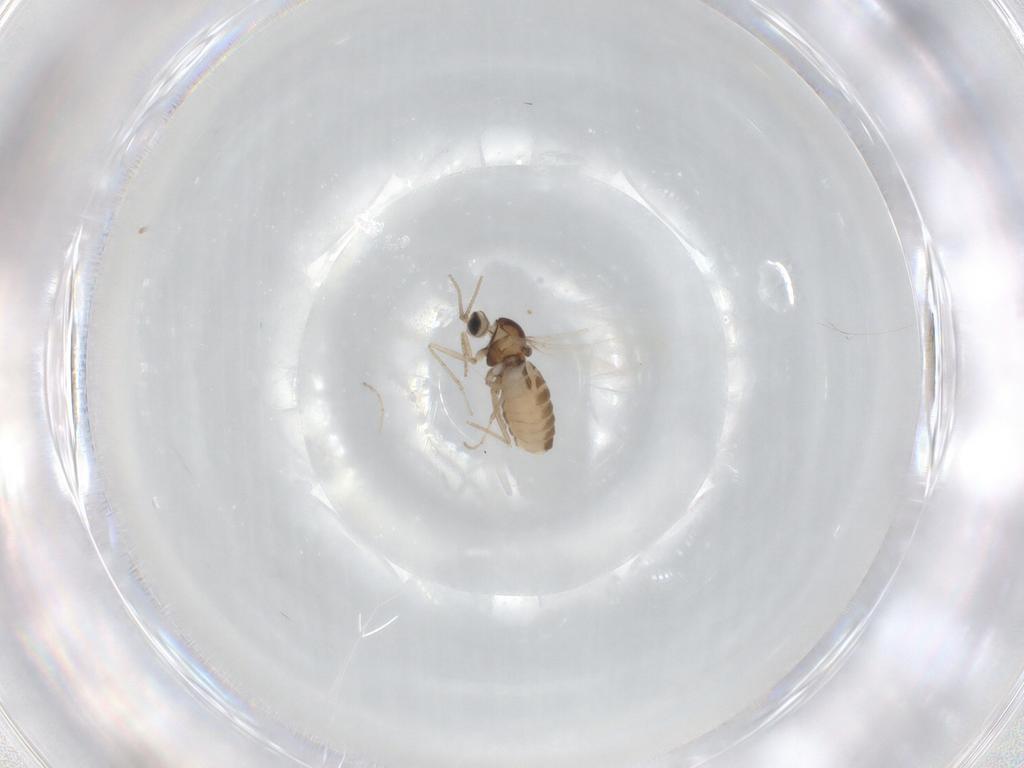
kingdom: Animalia
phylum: Arthropoda
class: Insecta
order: Diptera
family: Cecidomyiidae
